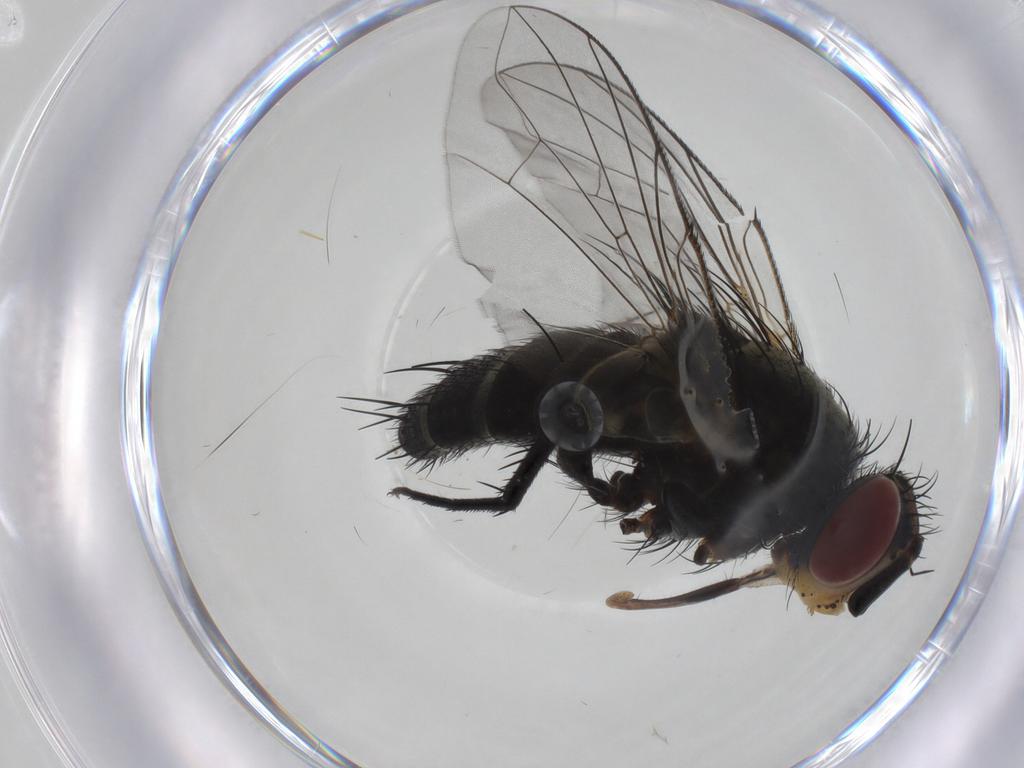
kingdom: Animalia
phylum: Arthropoda
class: Insecta
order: Diptera
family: Tachinidae
